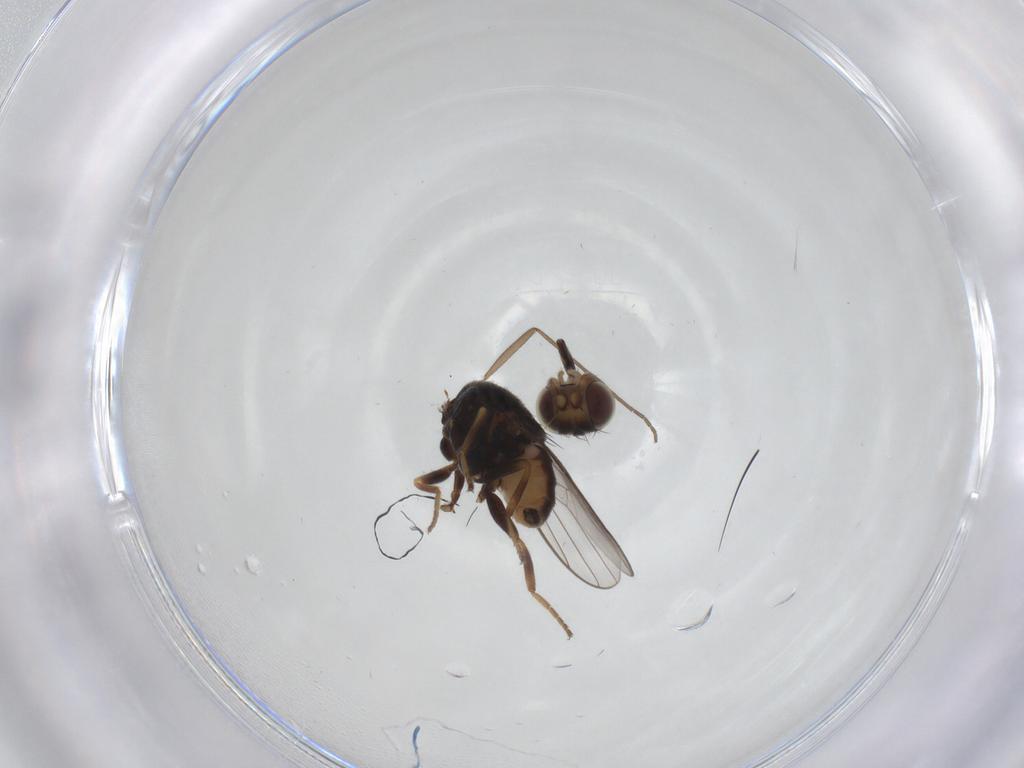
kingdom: Animalia
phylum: Arthropoda
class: Insecta
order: Diptera
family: Chloropidae
